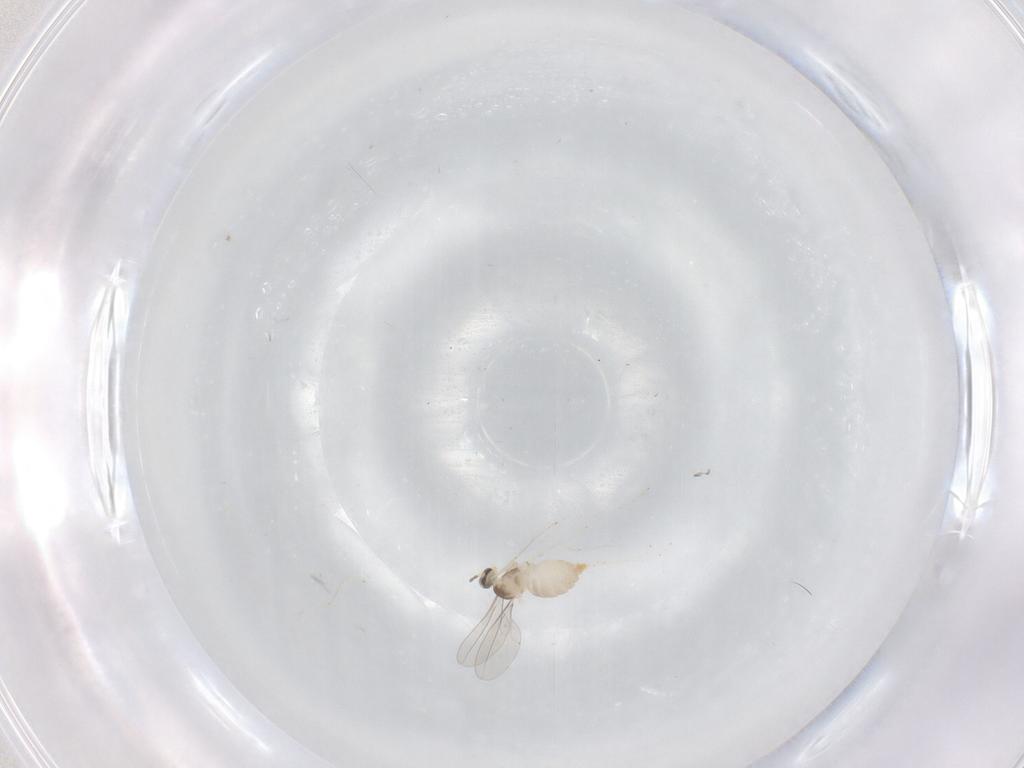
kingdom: Animalia
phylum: Arthropoda
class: Insecta
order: Diptera
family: Cecidomyiidae
